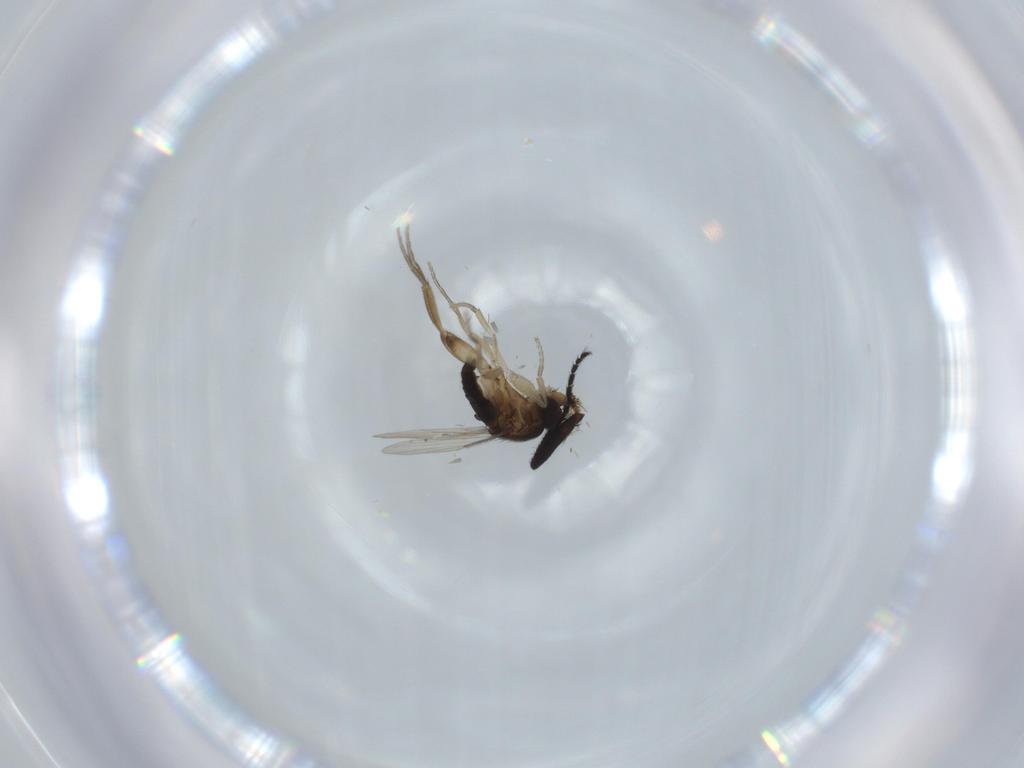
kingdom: Animalia
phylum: Arthropoda
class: Insecta
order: Diptera
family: Phoridae
